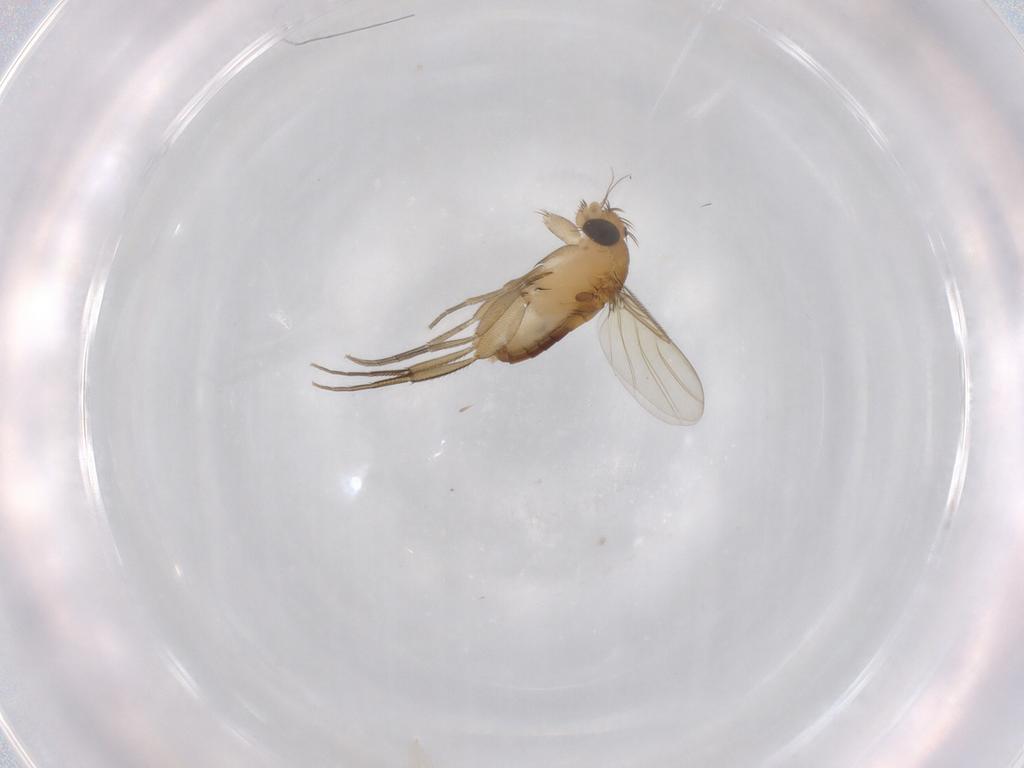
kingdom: Animalia
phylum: Arthropoda
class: Insecta
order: Diptera
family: Phoridae
